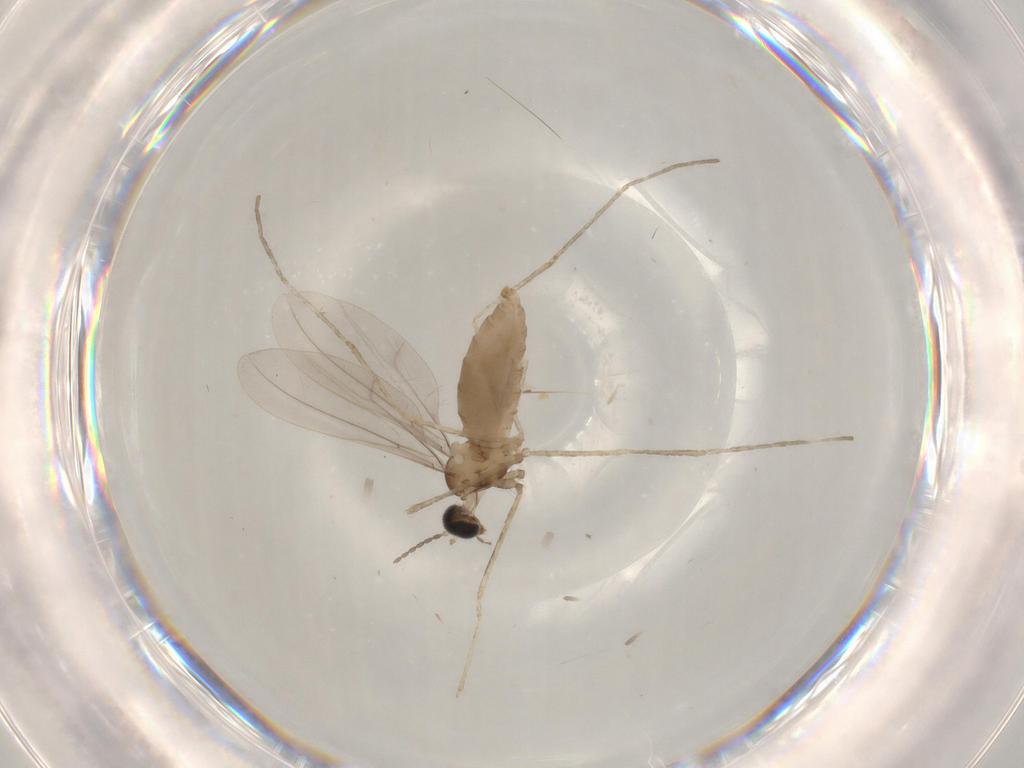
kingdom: Animalia
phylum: Arthropoda
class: Insecta
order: Diptera
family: Cecidomyiidae
